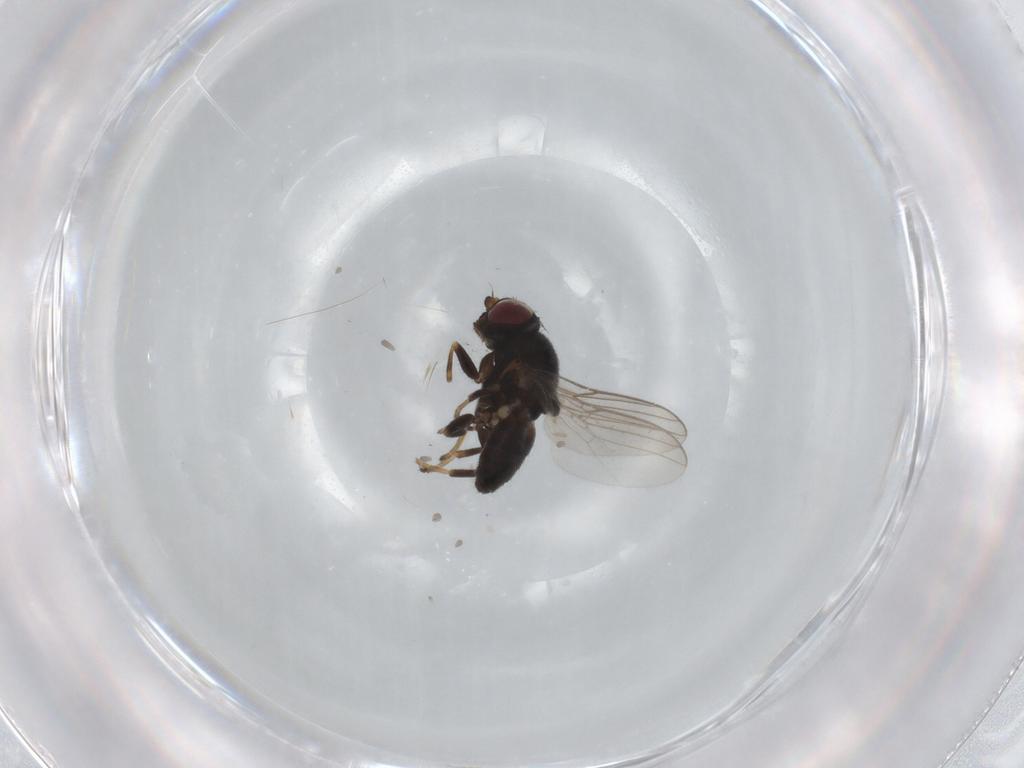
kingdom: Animalia
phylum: Arthropoda
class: Insecta
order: Diptera
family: Chloropidae
